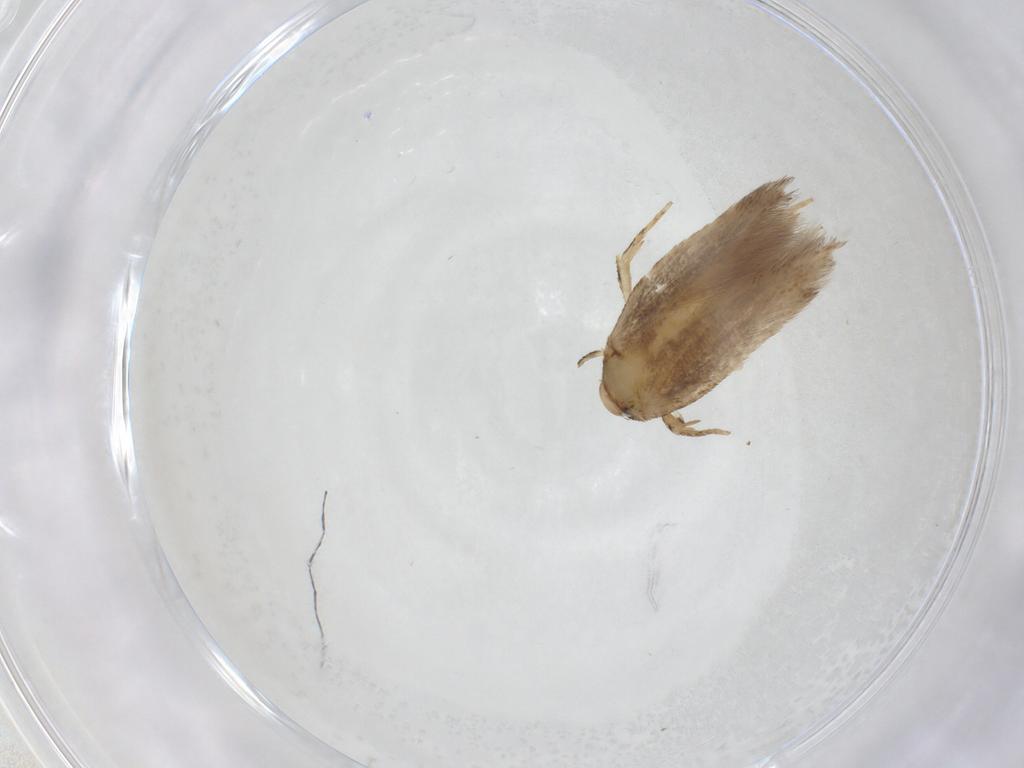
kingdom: Animalia
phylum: Arthropoda
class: Insecta
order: Lepidoptera
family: Cosmopterigidae
